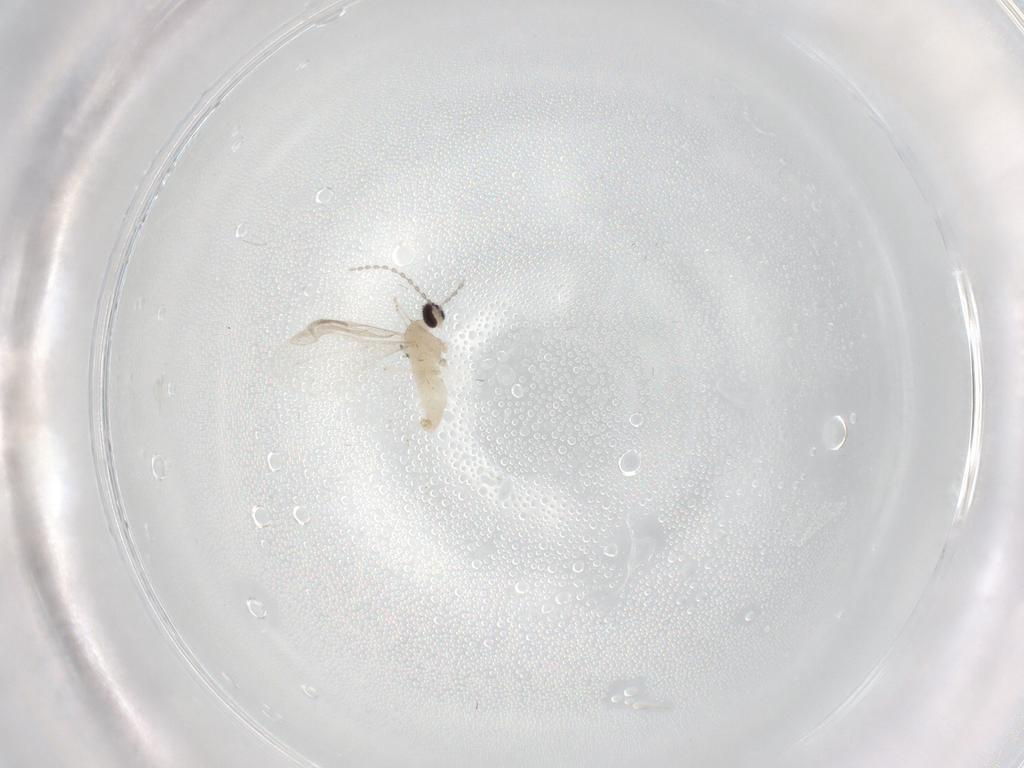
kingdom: Animalia
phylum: Arthropoda
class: Insecta
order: Diptera
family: Cecidomyiidae
